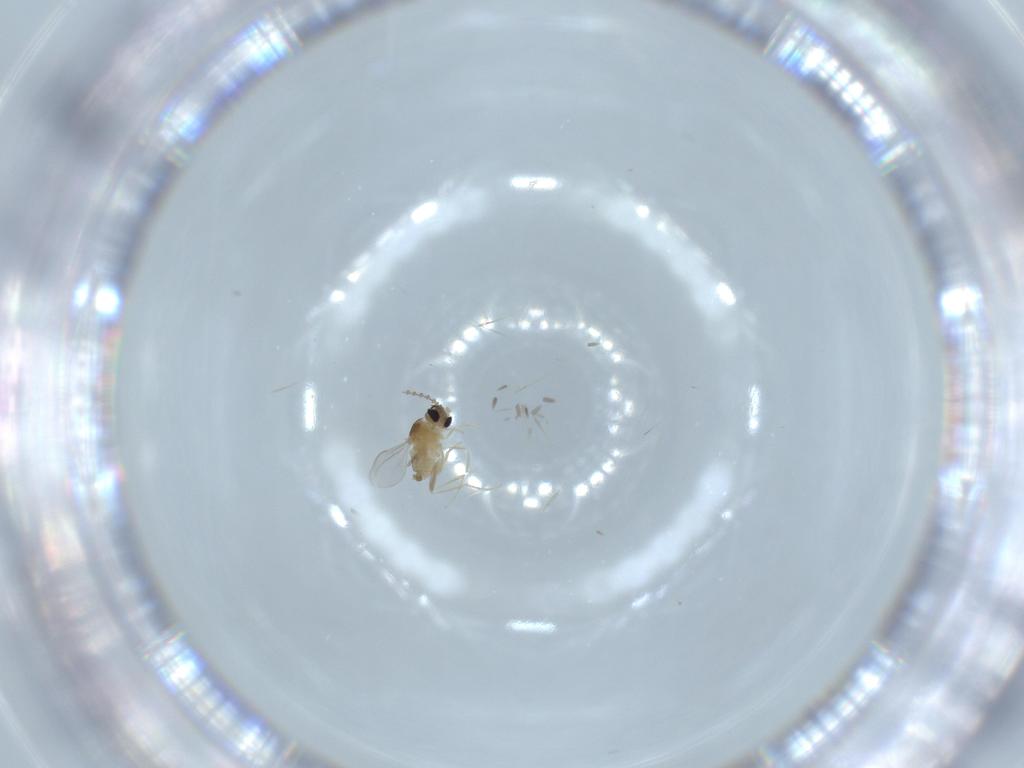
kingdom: Animalia
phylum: Arthropoda
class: Insecta
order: Diptera
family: Cecidomyiidae
